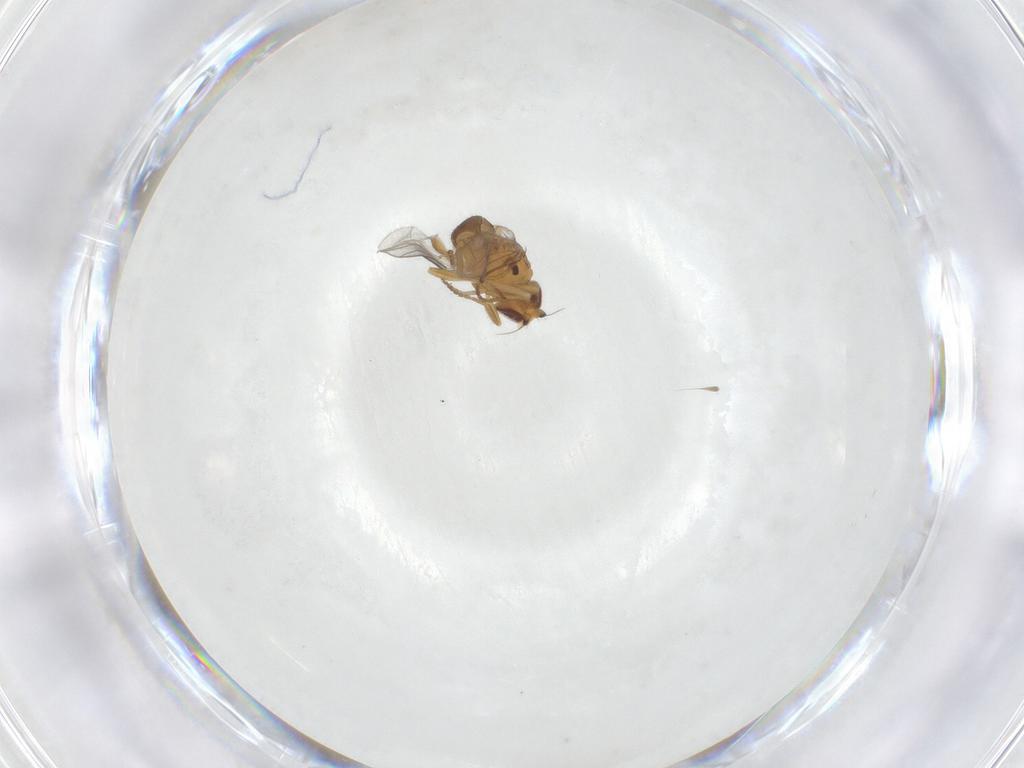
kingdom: Animalia
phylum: Arthropoda
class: Insecta
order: Diptera
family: Chloropidae
